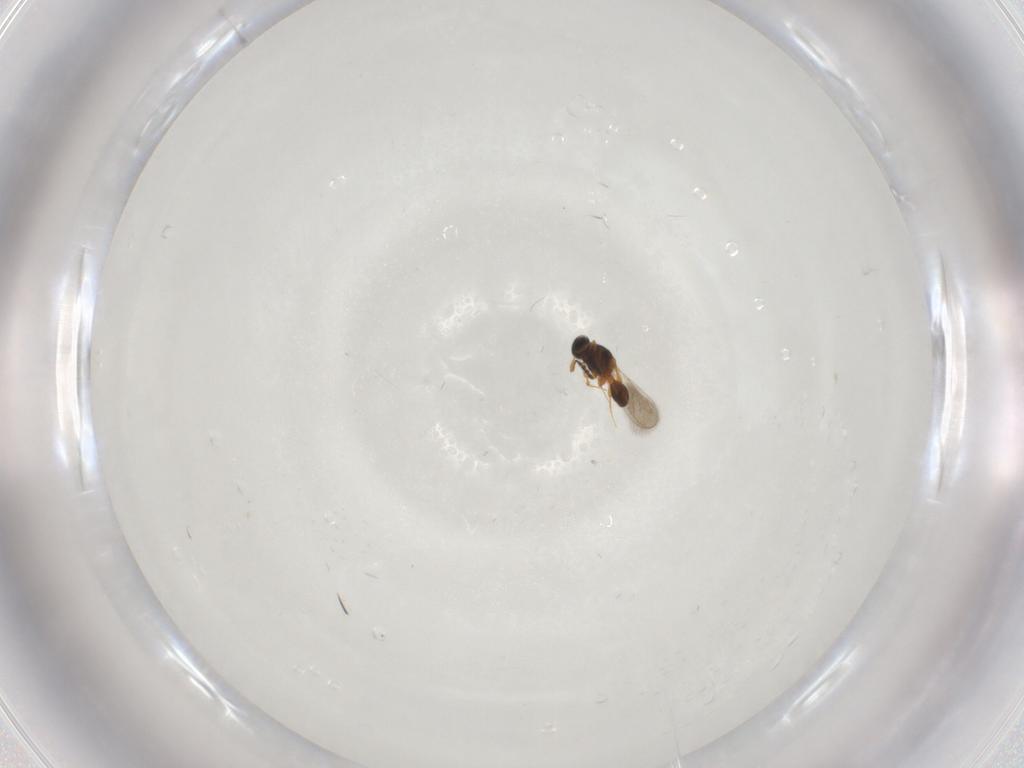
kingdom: Animalia
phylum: Arthropoda
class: Insecta
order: Hymenoptera
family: Platygastridae
